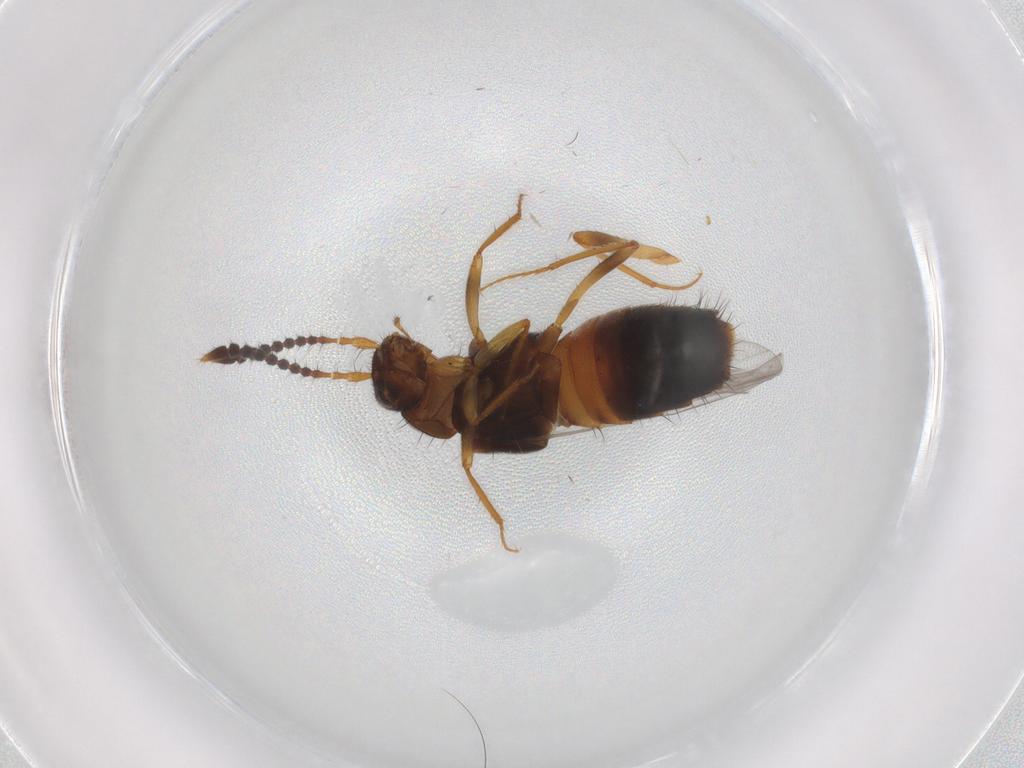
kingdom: Animalia
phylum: Arthropoda
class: Insecta
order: Coleoptera
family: Staphylinidae
